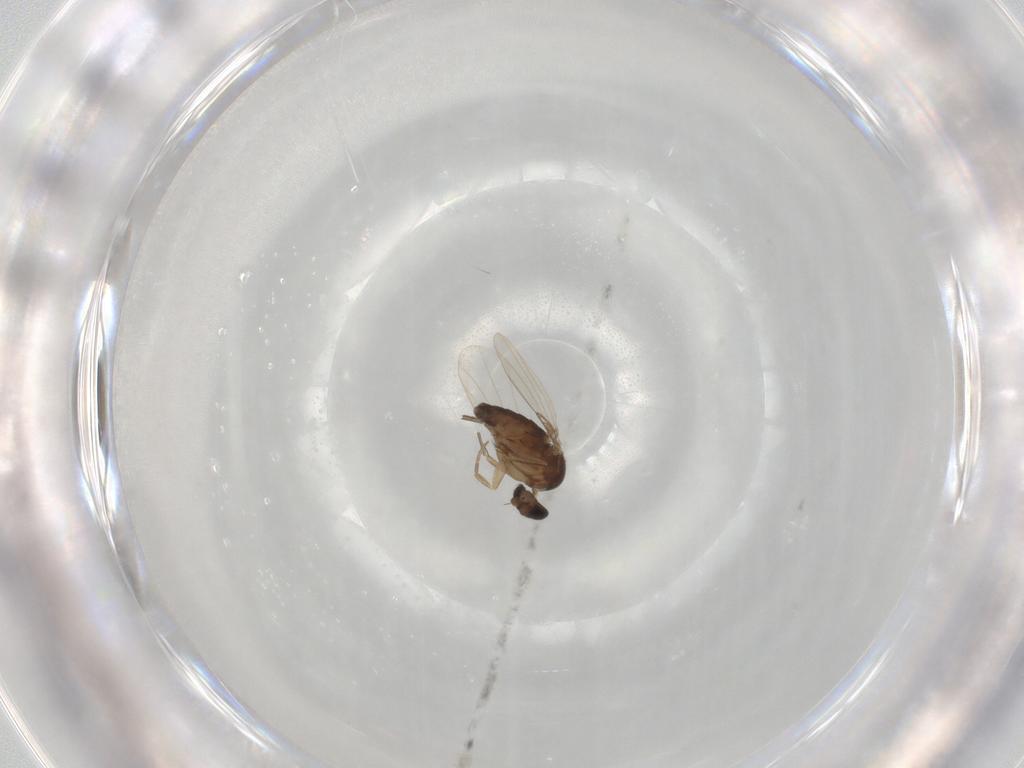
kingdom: Animalia
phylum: Arthropoda
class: Insecta
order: Diptera
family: Phoridae
